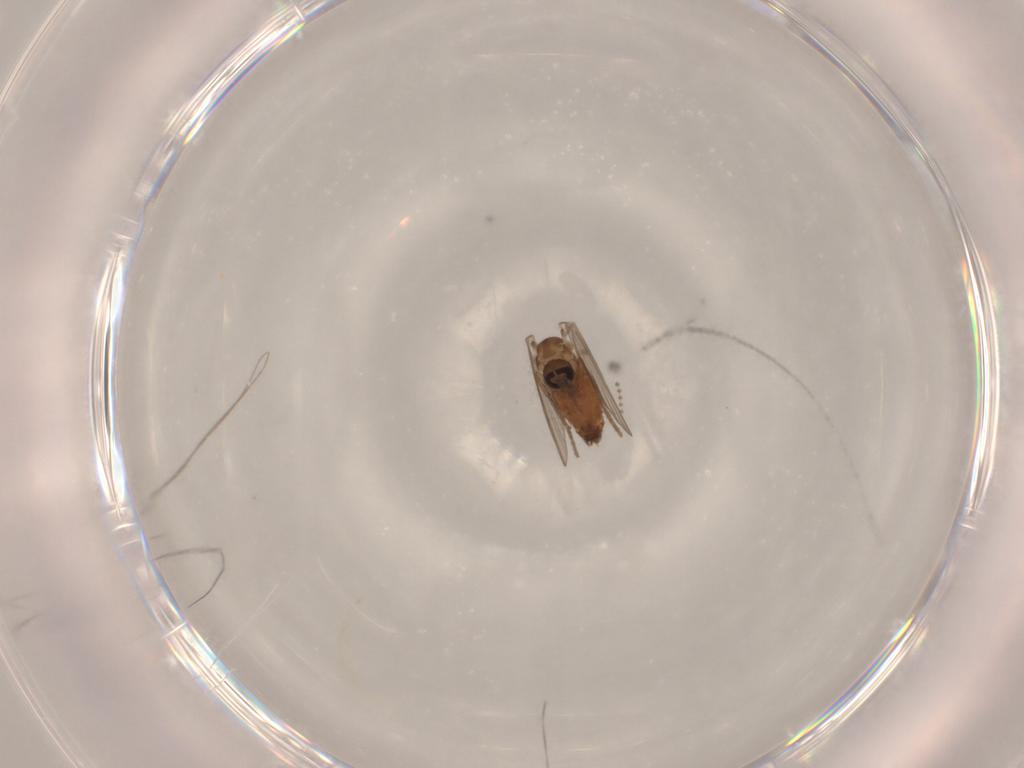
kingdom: Animalia
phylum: Arthropoda
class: Insecta
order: Diptera
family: Psychodidae
